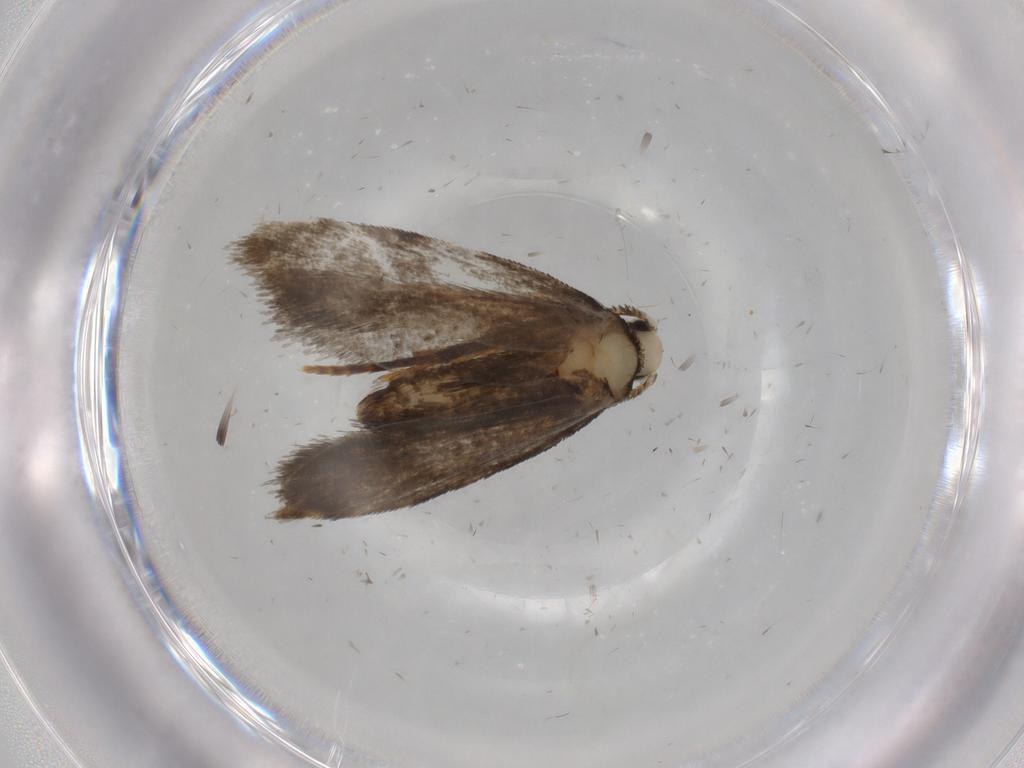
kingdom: Animalia
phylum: Arthropoda
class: Insecta
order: Lepidoptera
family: Psychidae
